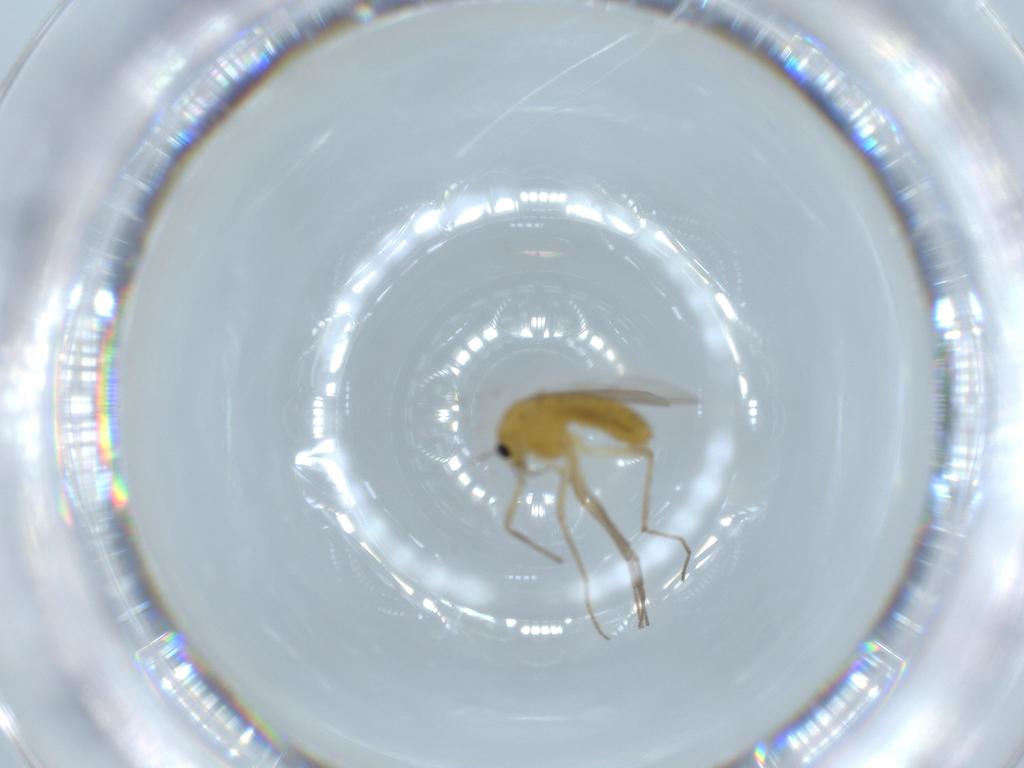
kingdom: Animalia
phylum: Arthropoda
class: Insecta
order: Diptera
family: Chironomidae
